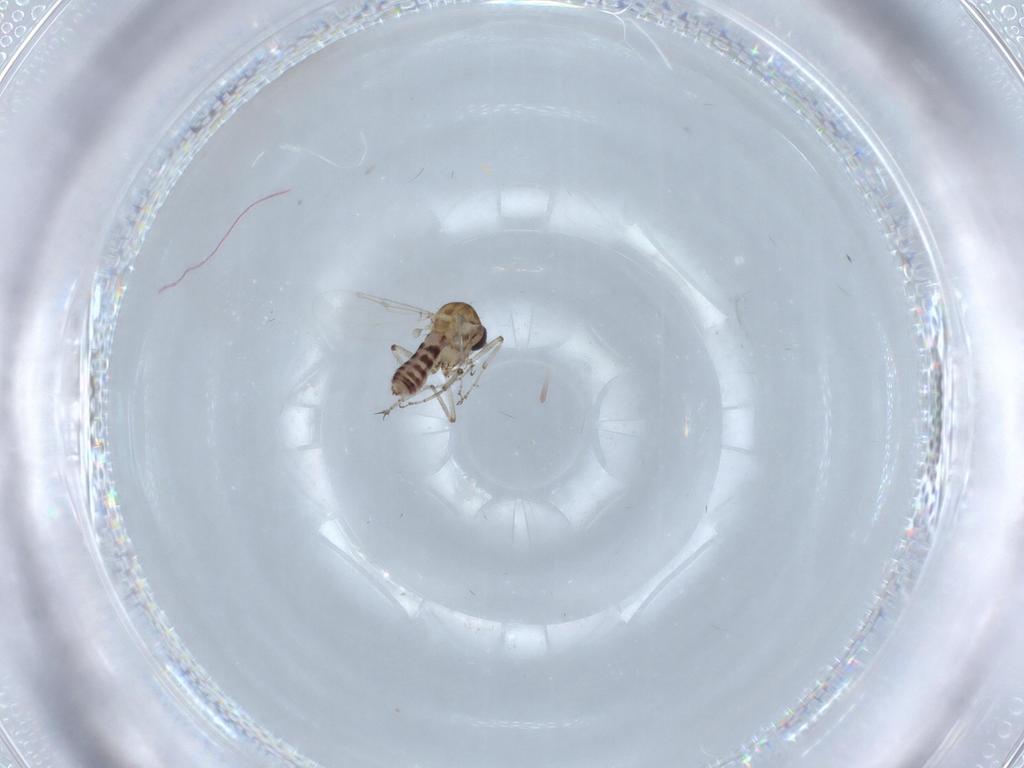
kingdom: Animalia
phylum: Arthropoda
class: Insecta
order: Diptera
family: Ceratopogonidae
